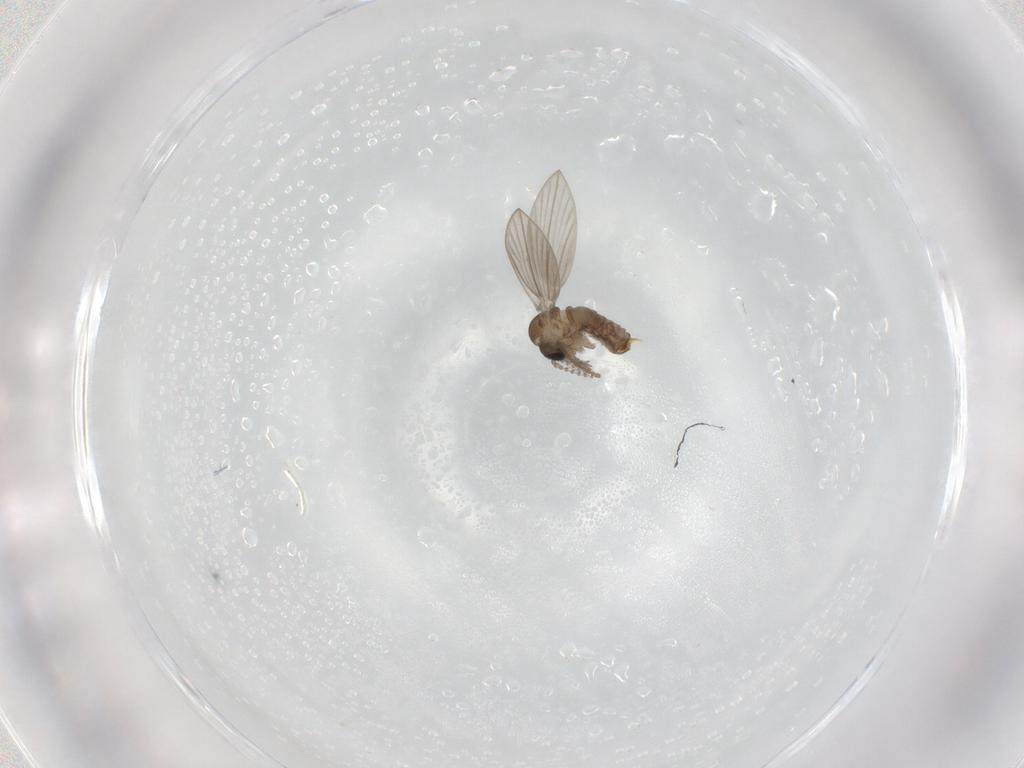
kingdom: Animalia
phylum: Arthropoda
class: Insecta
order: Diptera
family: Psychodidae
